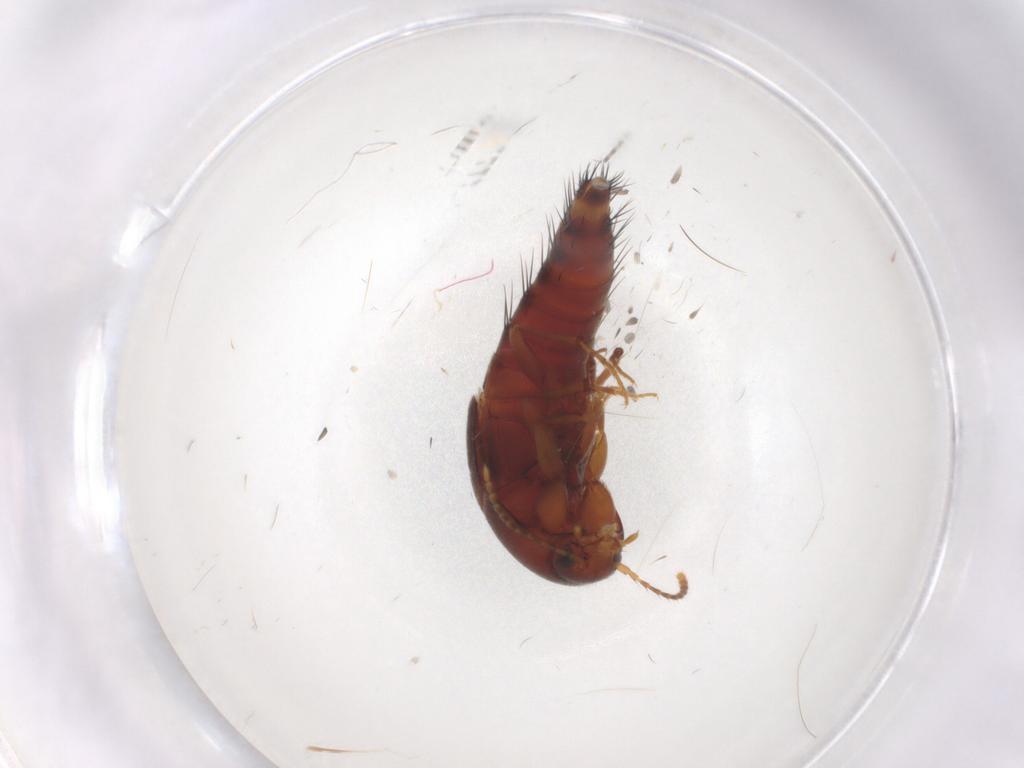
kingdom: Animalia
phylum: Arthropoda
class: Insecta
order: Coleoptera
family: Staphylinidae
